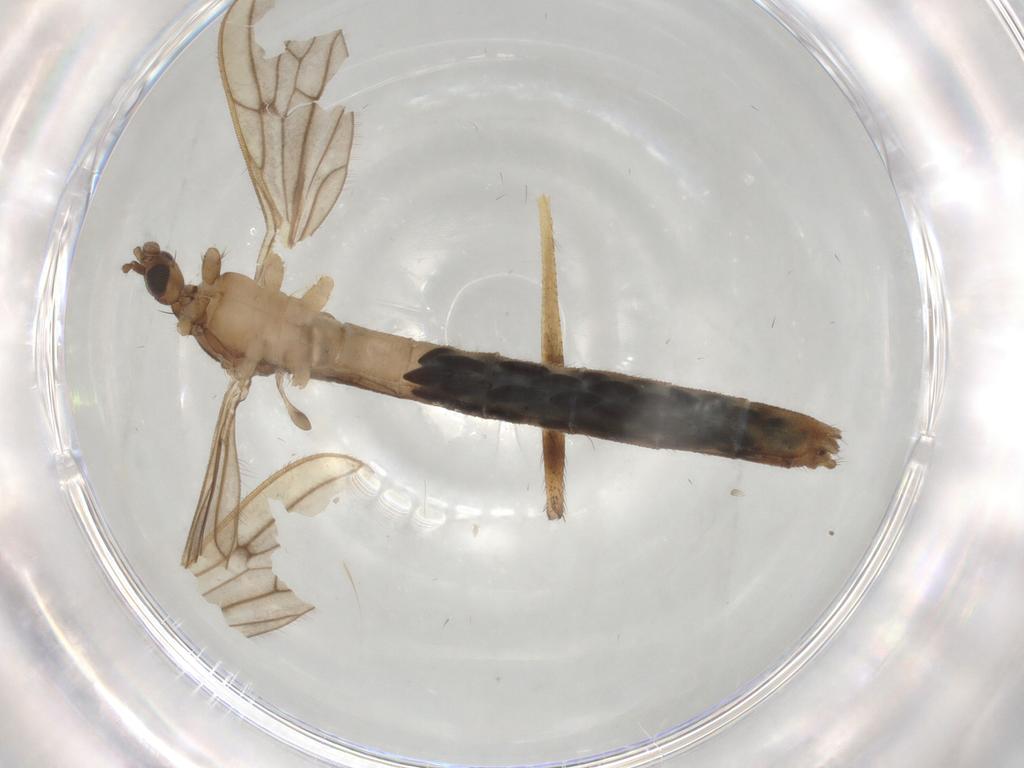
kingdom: Animalia
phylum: Arthropoda
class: Insecta
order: Diptera
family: Limoniidae
